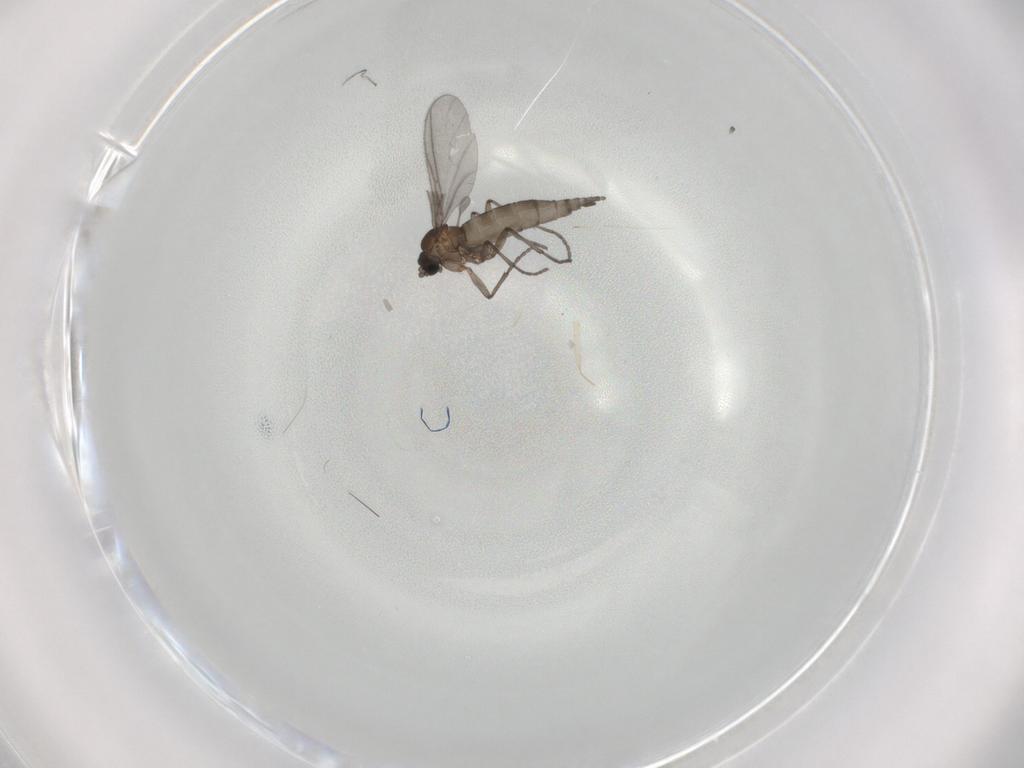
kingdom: Animalia
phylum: Arthropoda
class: Insecta
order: Diptera
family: Sciaridae
